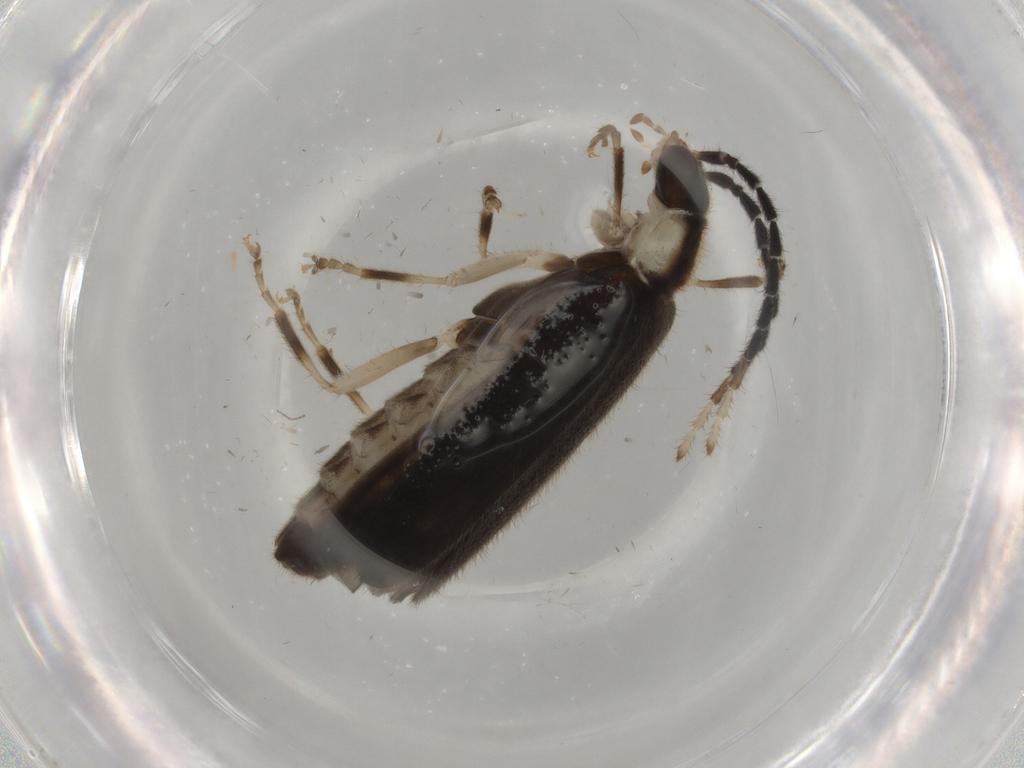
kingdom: Animalia
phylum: Arthropoda
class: Insecta
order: Coleoptera
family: Cantharidae
